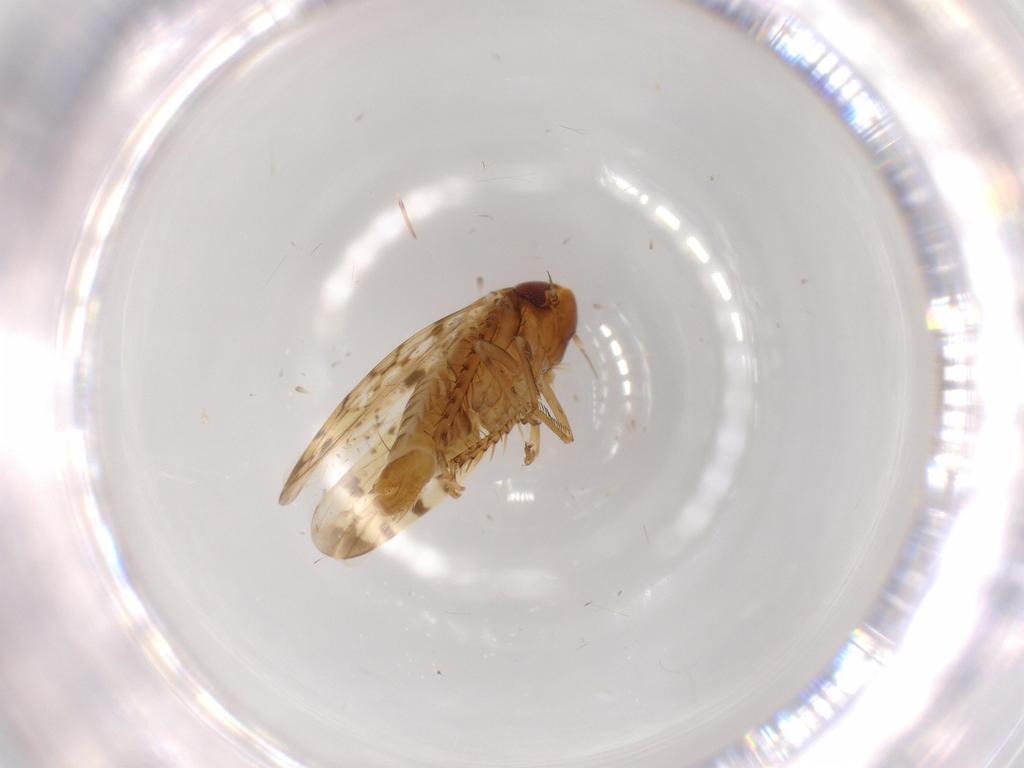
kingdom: Animalia
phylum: Arthropoda
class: Insecta
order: Hemiptera
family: Cicadellidae
